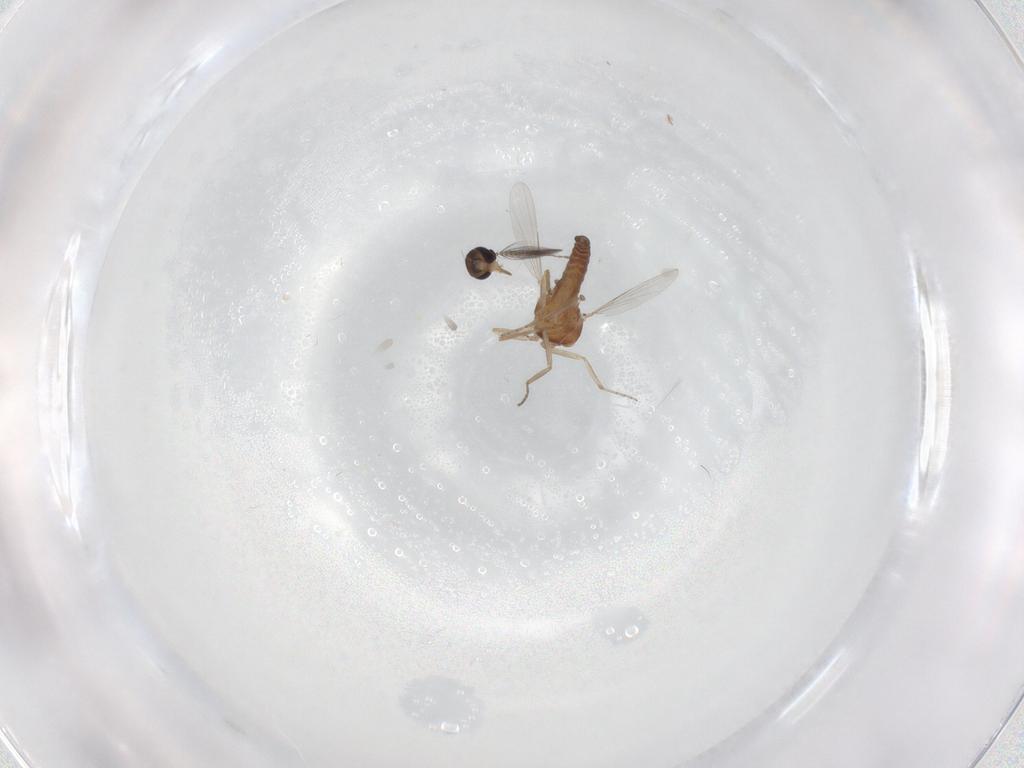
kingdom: Animalia
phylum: Arthropoda
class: Insecta
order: Diptera
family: Ceratopogonidae
